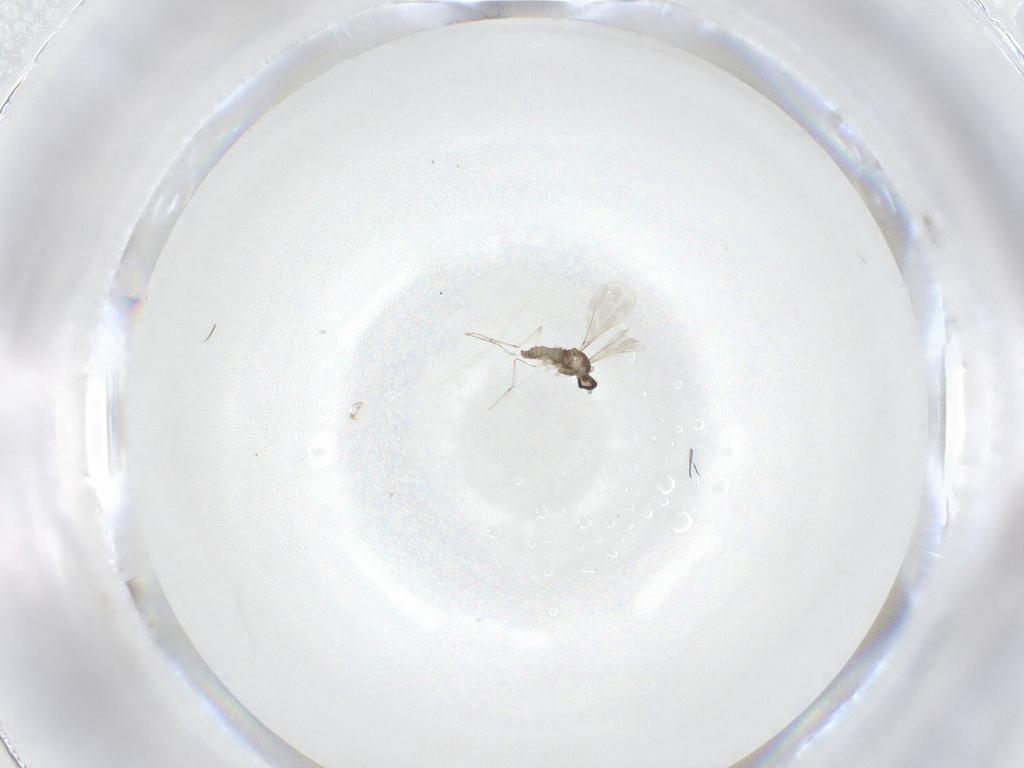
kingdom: Animalia
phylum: Arthropoda
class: Insecta
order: Diptera
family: Cecidomyiidae
